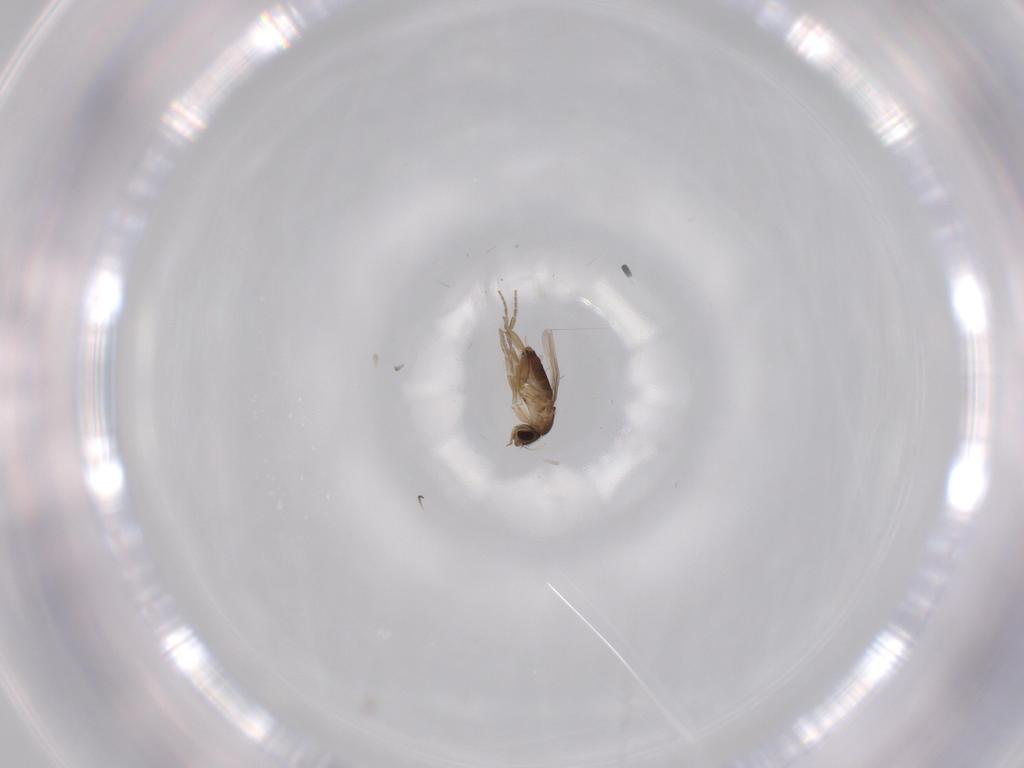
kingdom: Animalia
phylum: Arthropoda
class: Insecta
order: Diptera
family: Phoridae
